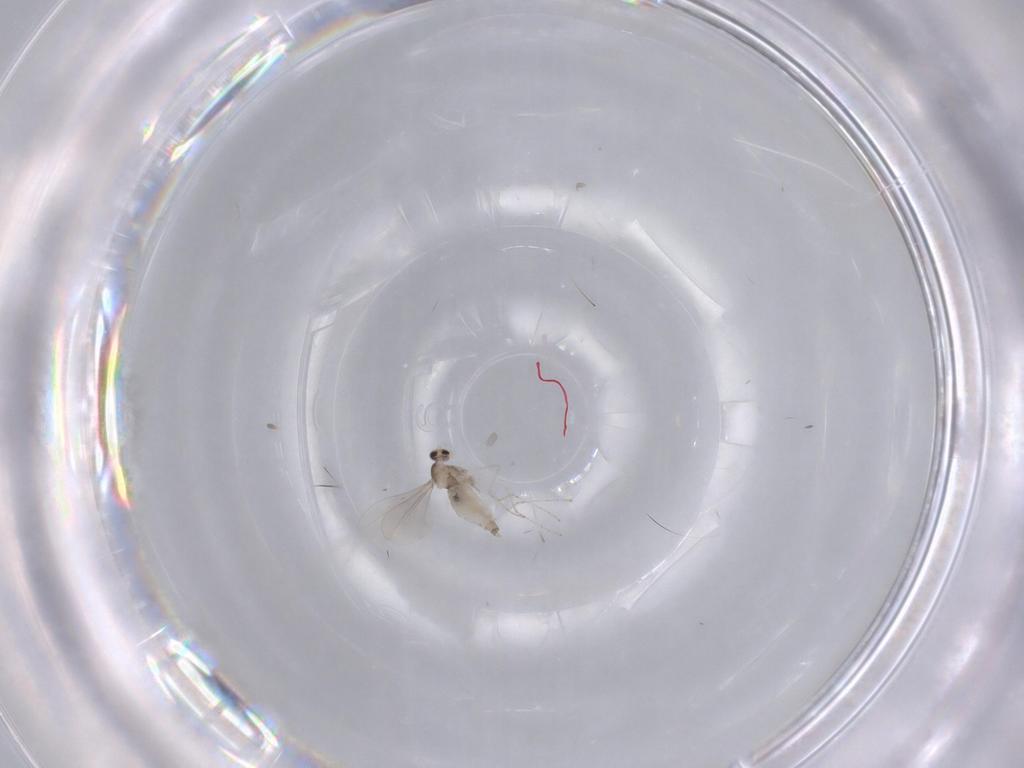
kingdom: Animalia
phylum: Arthropoda
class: Insecta
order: Diptera
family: Cecidomyiidae
